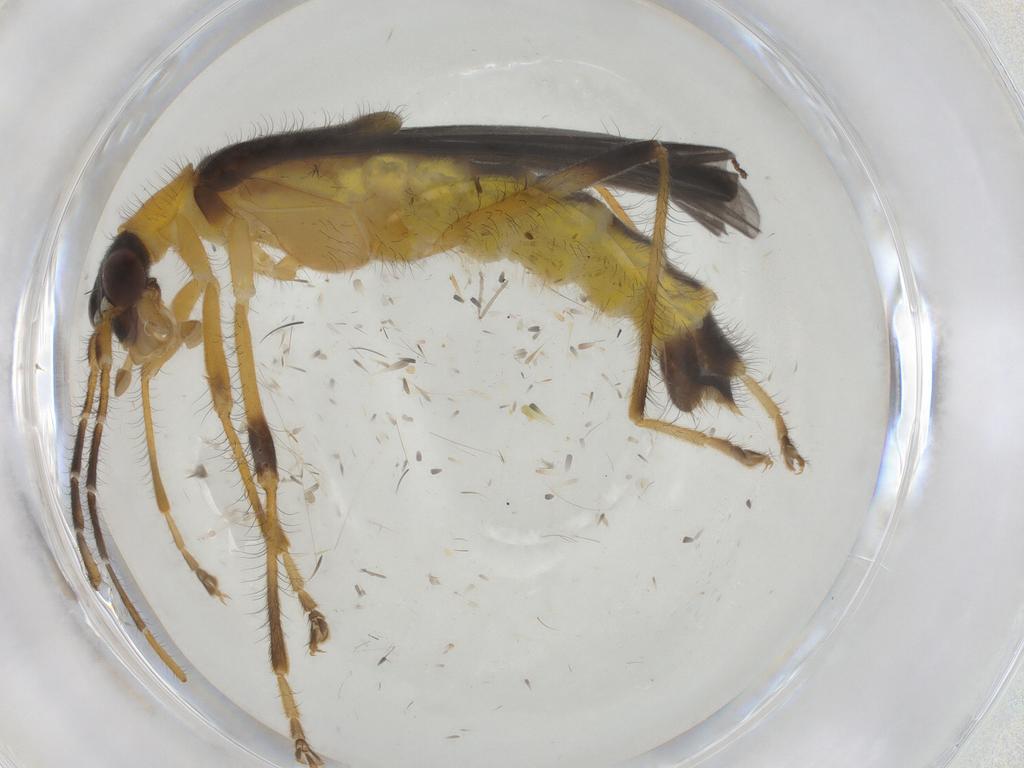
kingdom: Animalia
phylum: Arthropoda
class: Insecta
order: Coleoptera
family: Cantharidae
